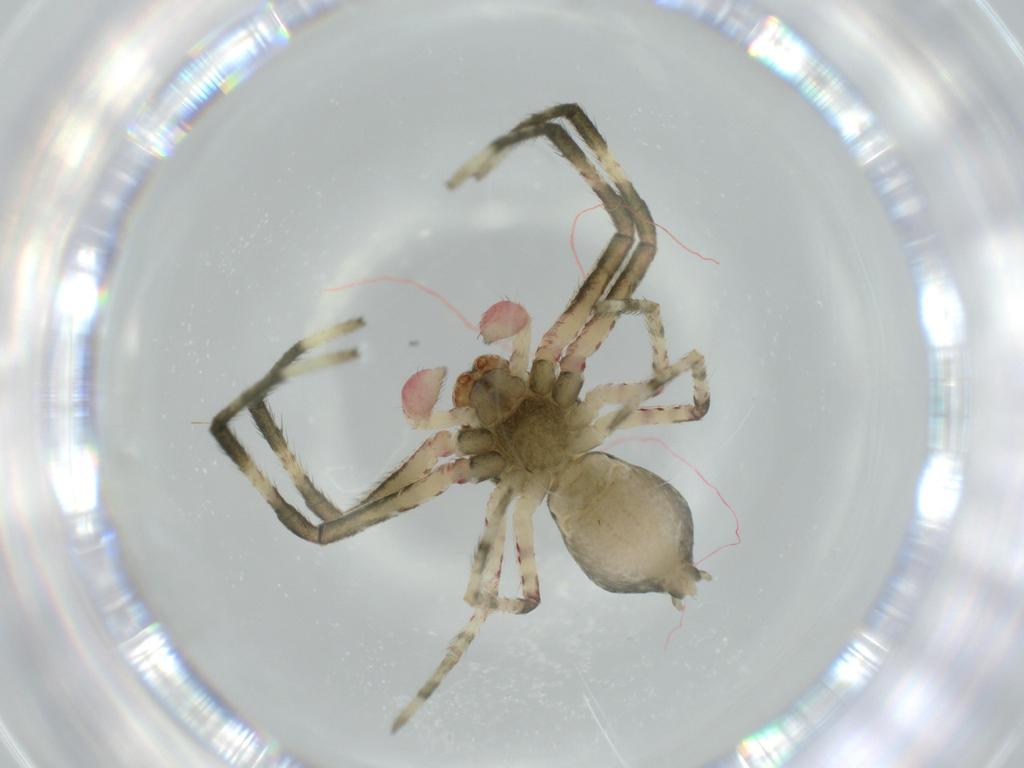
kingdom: Animalia
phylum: Arthropoda
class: Arachnida
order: Araneae
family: Thomisidae
